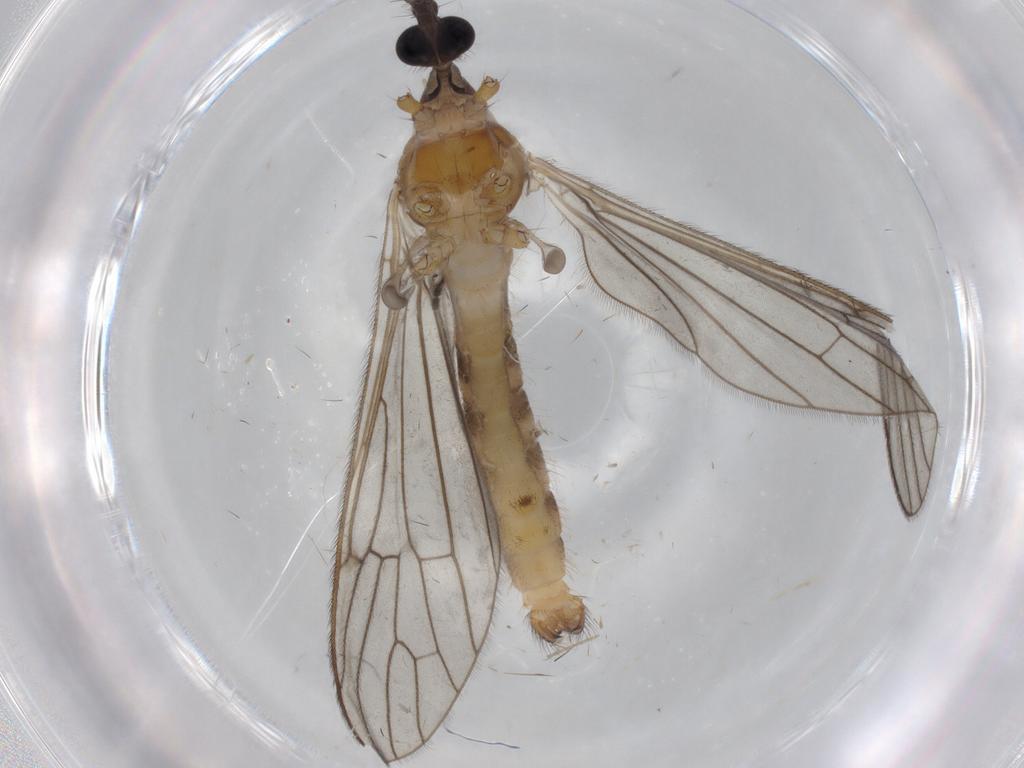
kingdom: Animalia
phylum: Arthropoda
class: Insecta
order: Diptera
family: Limoniidae
